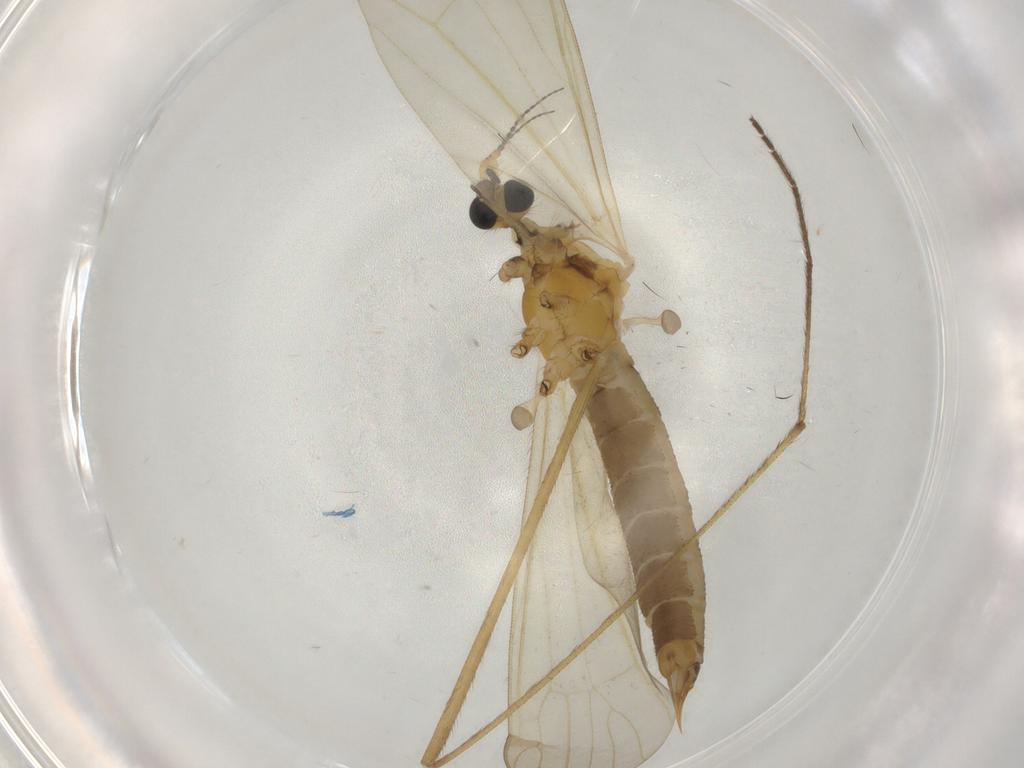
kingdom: Animalia
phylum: Arthropoda
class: Insecta
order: Diptera
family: Limoniidae
